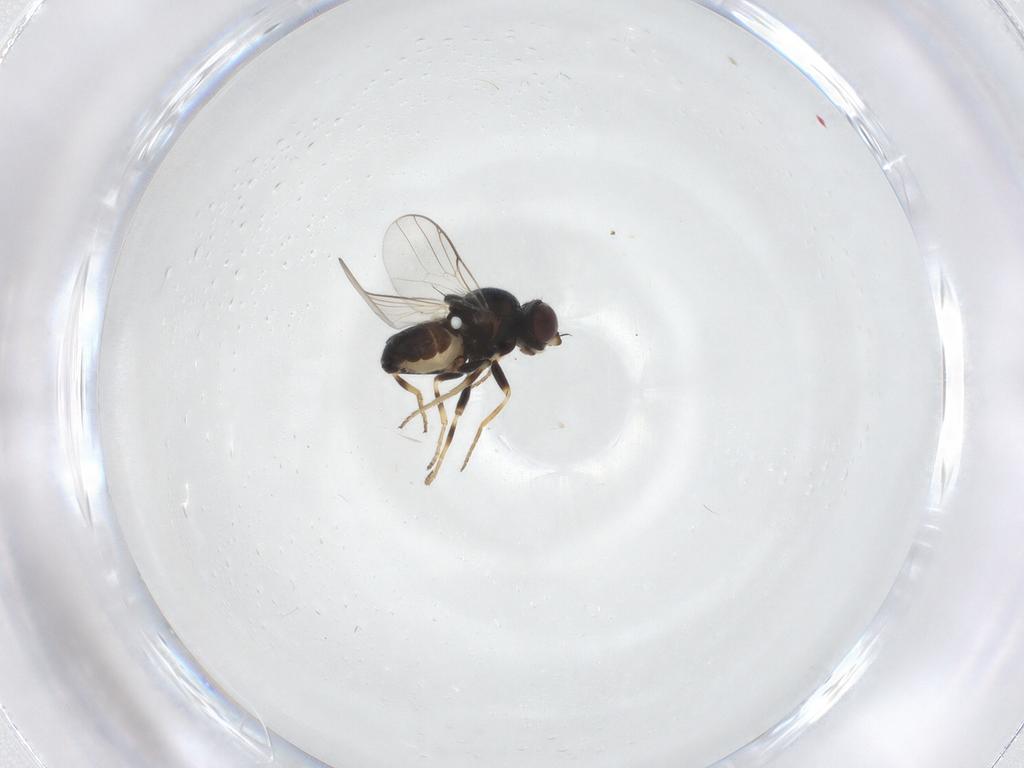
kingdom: Animalia
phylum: Arthropoda
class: Insecta
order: Diptera
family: Chloropidae
